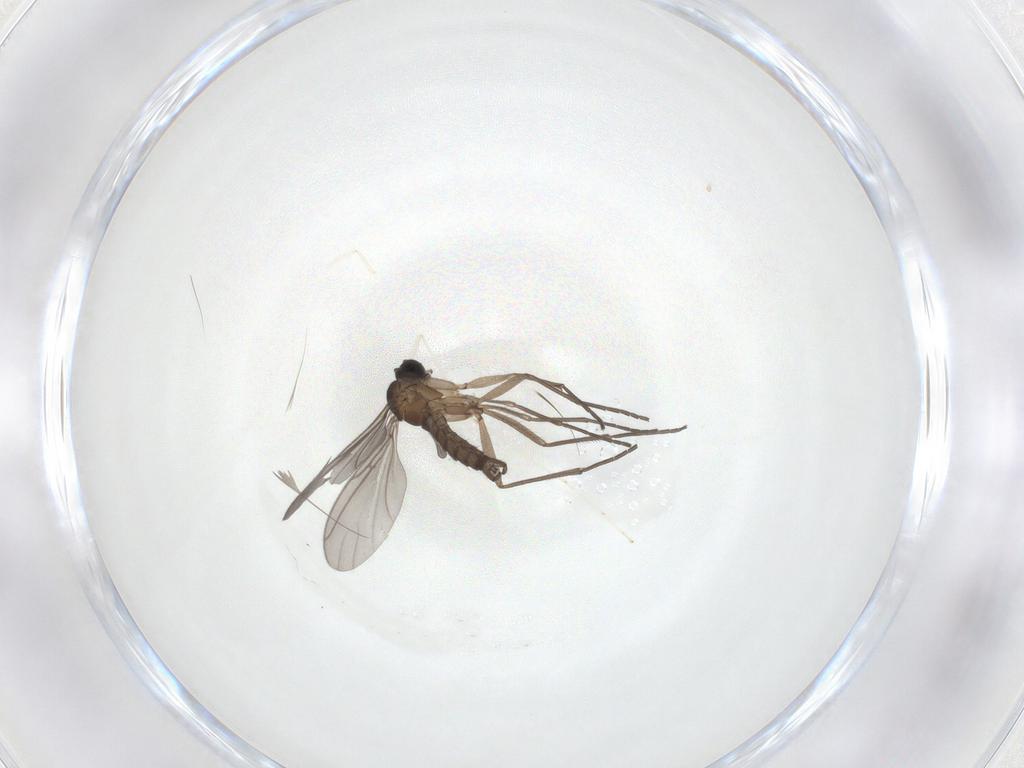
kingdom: Animalia
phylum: Arthropoda
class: Insecta
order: Diptera
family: Sciaridae
